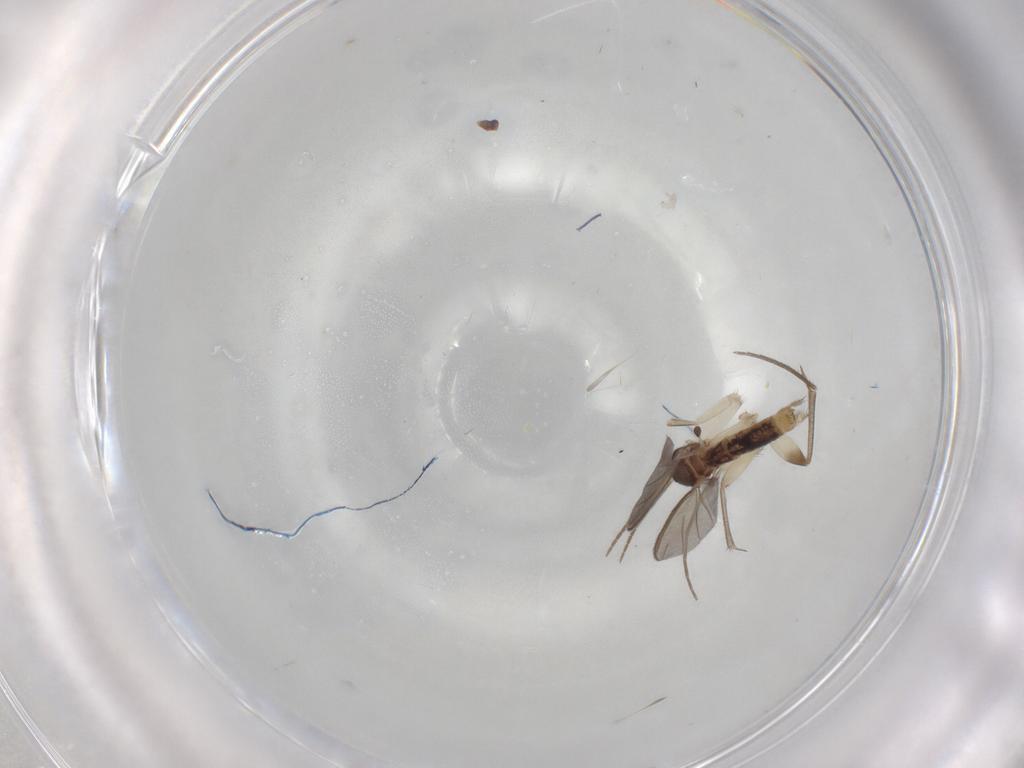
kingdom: Animalia
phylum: Arthropoda
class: Insecta
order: Diptera
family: Mycetophilidae
